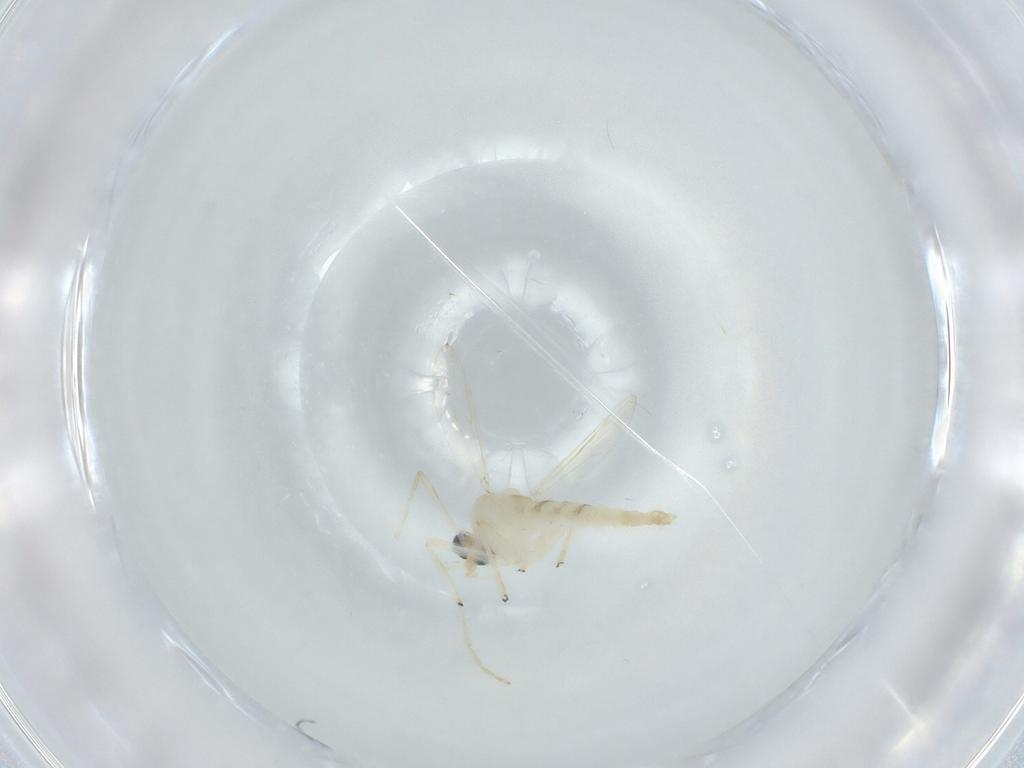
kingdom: Animalia
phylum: Arthropoda
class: Insecta
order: Diptera
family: Chironomidae
